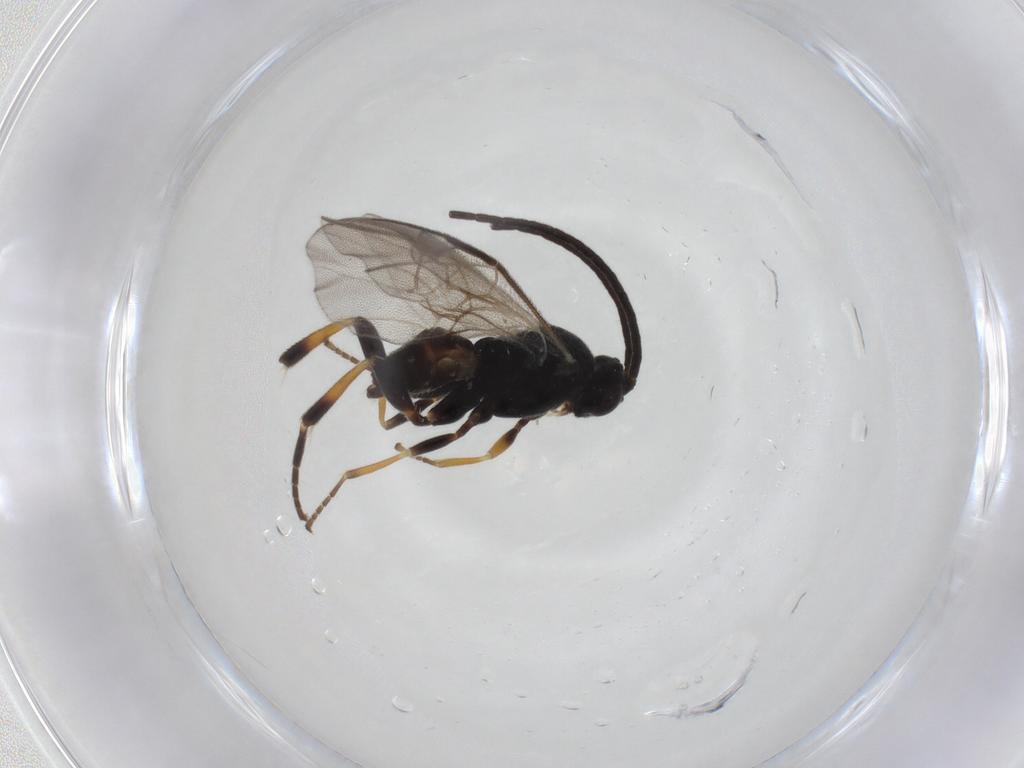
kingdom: Animalia
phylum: Arthropoda
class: Insecta
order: Hymenoptera
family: Braconidae
